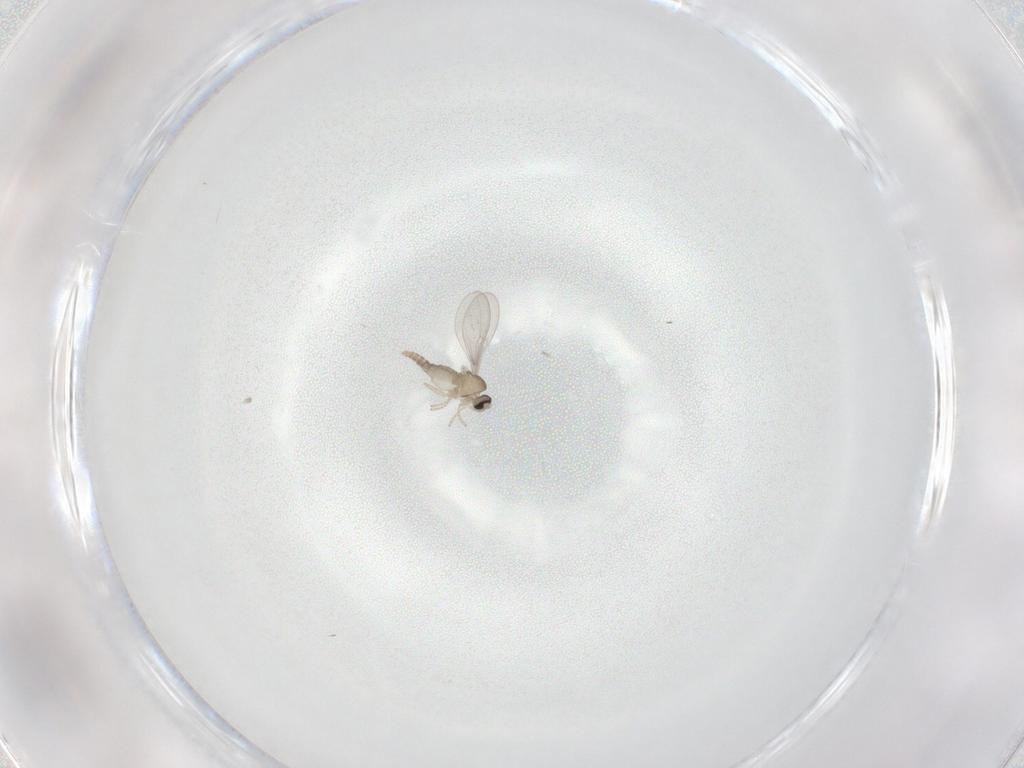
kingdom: Animalia
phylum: Arthropoda
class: Insecta
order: Diptera
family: Cecidomyiidae
